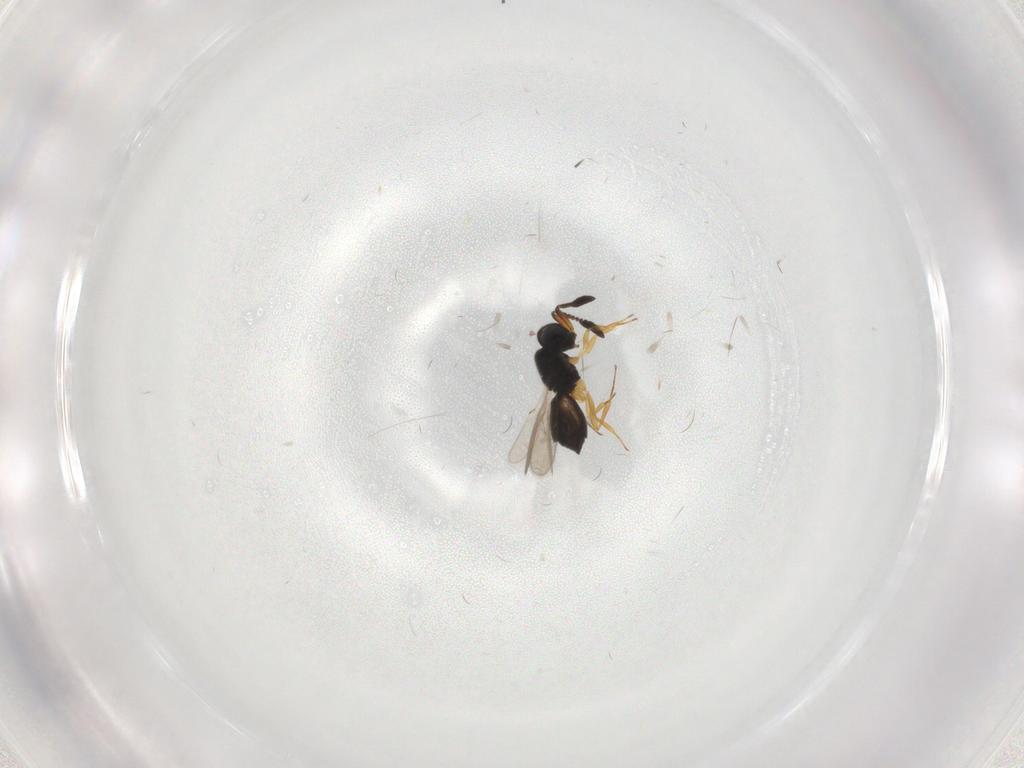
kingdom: Animalia
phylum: Arthropoda
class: Insecta
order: Hymenoptera
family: Scelionidae
